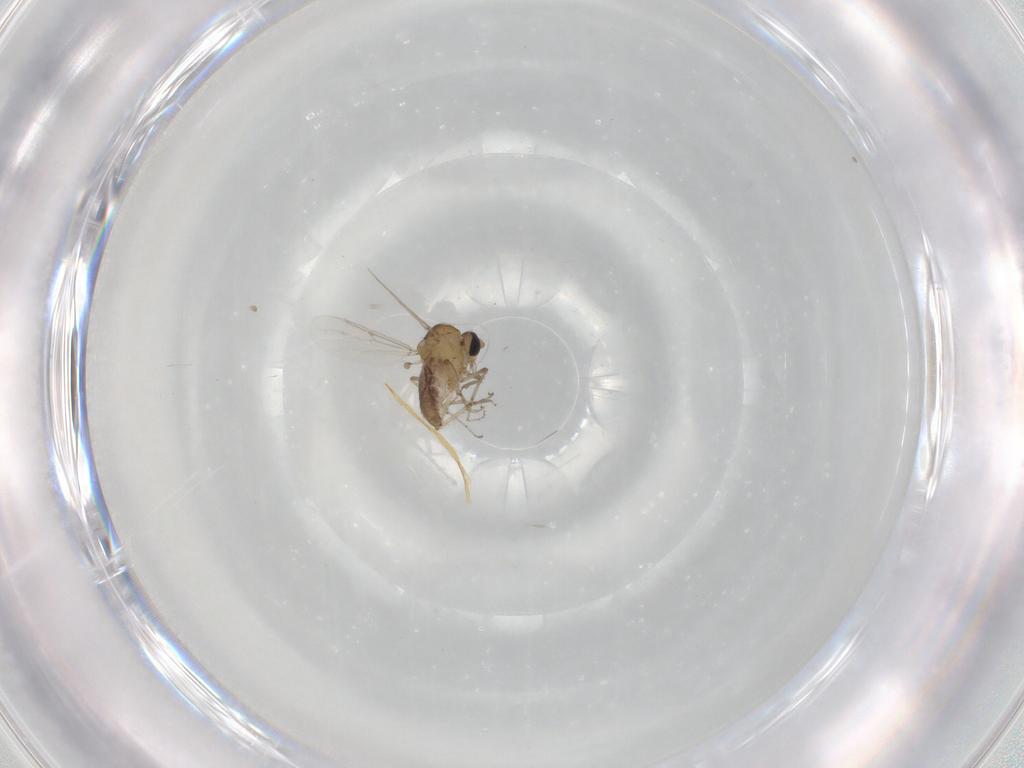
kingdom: Animalia
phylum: Arthropoda
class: Insecta
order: Diptera
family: Ceratopogonidae
